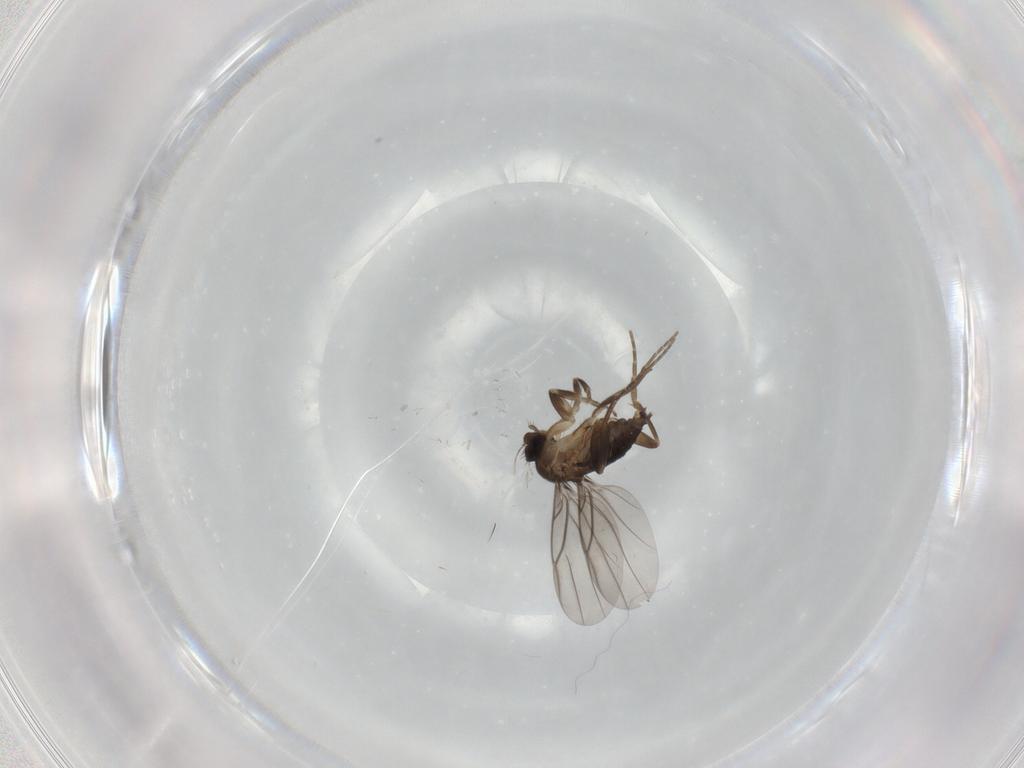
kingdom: Animalia
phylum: Arthropoda
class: Insecta
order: Diptera
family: Phoridae
